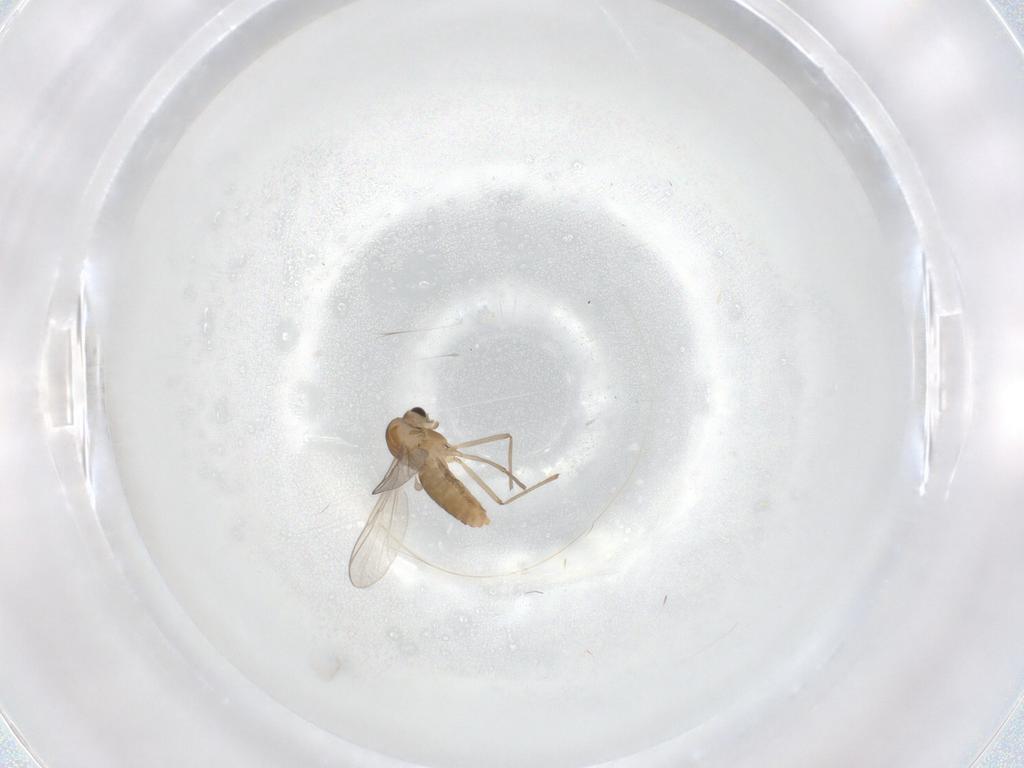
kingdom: Animalia
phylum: Arthropoda
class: Insecta
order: Diptera
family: Chironomidae
